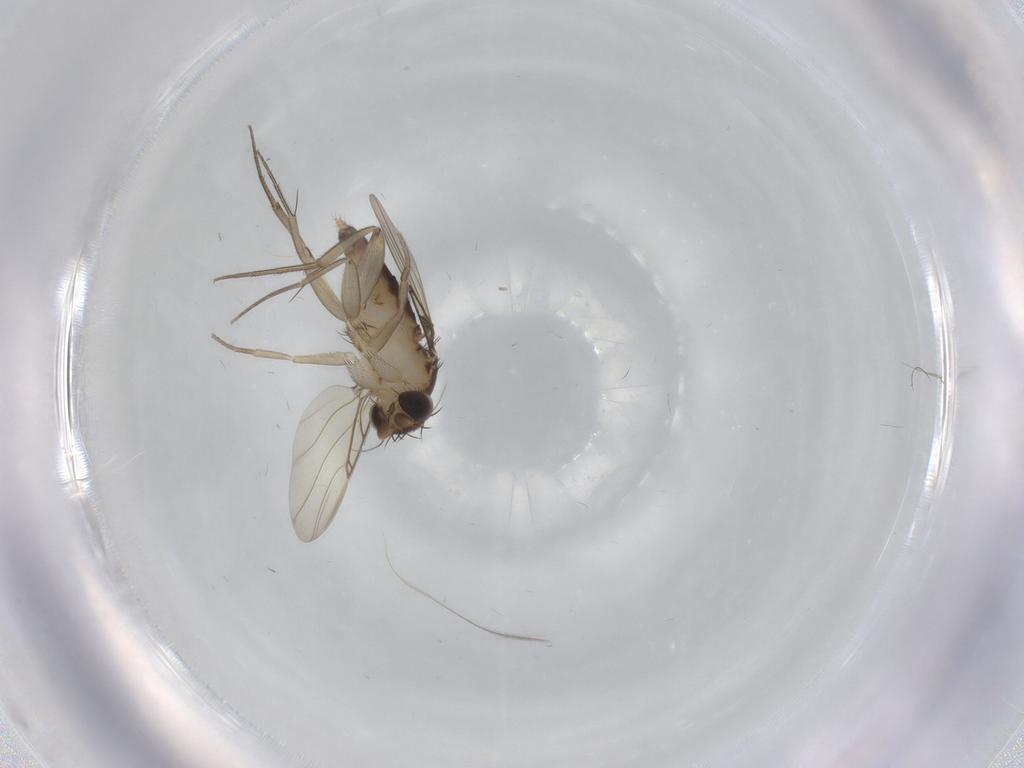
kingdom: Animalia
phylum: Arthropoda
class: Insecta
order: Diptera
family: Phoridae
